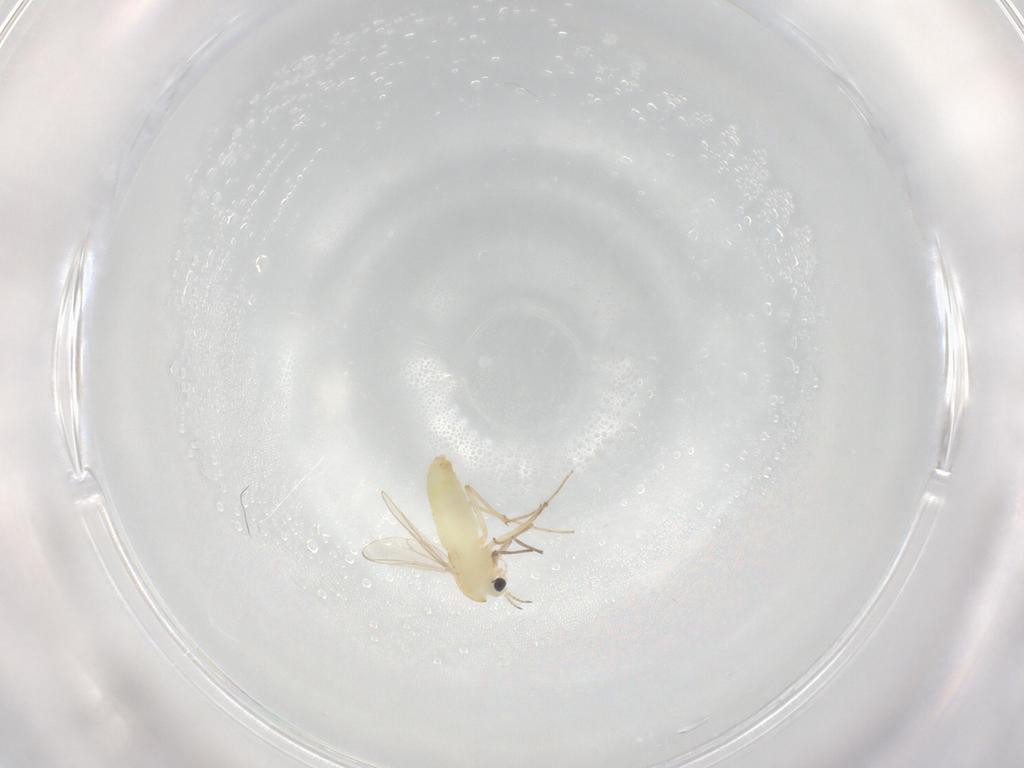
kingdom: Animalia
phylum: Arthropoda
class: Insecta
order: Diptera
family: Chironomidae
